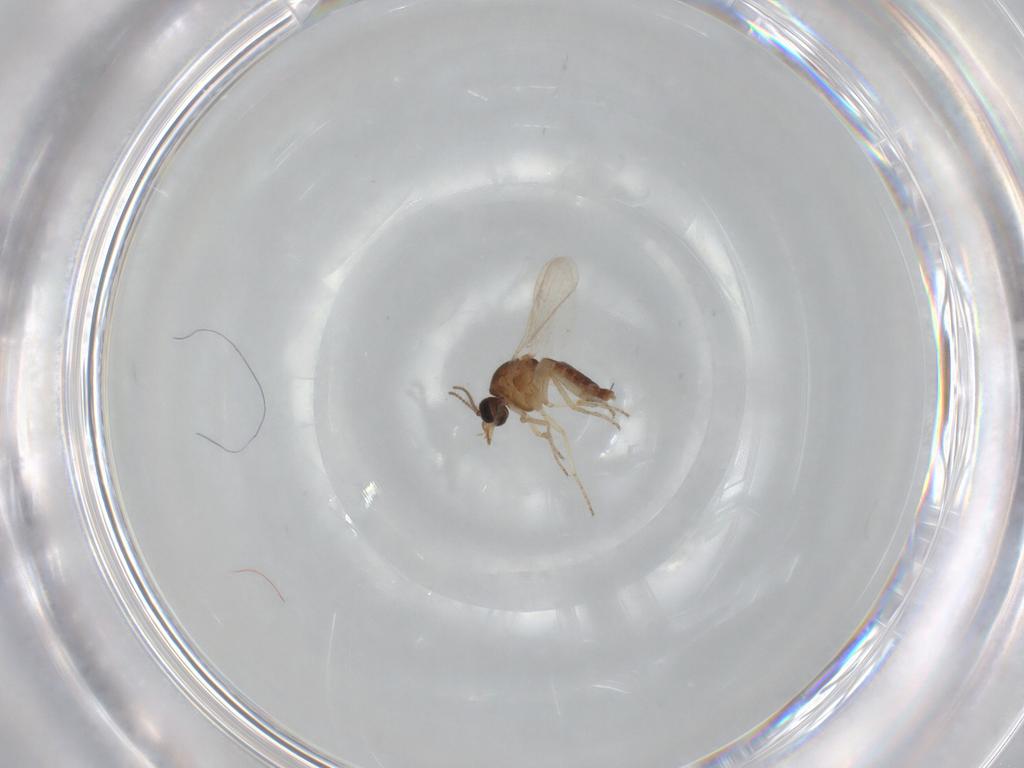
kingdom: Animalia
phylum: Arthropoda
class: Insecta
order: Diptera
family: Ceratopogonidae
